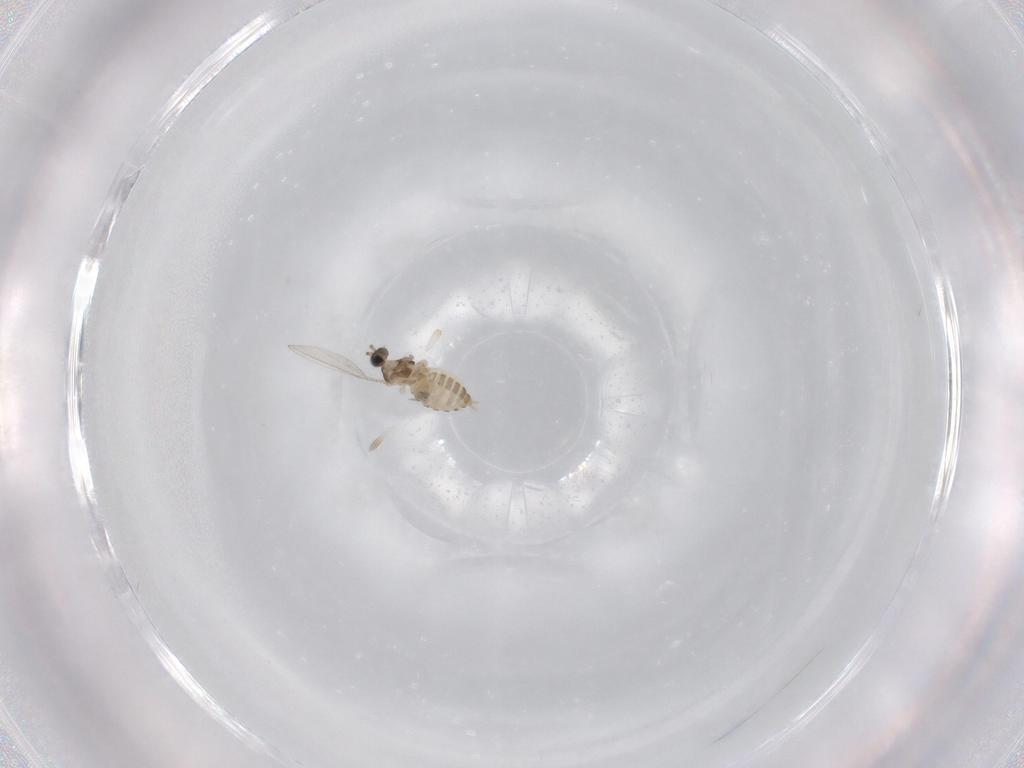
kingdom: Animalia
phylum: Arthropoda
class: Insecta
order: Diptera
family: Cecidomyiidae
